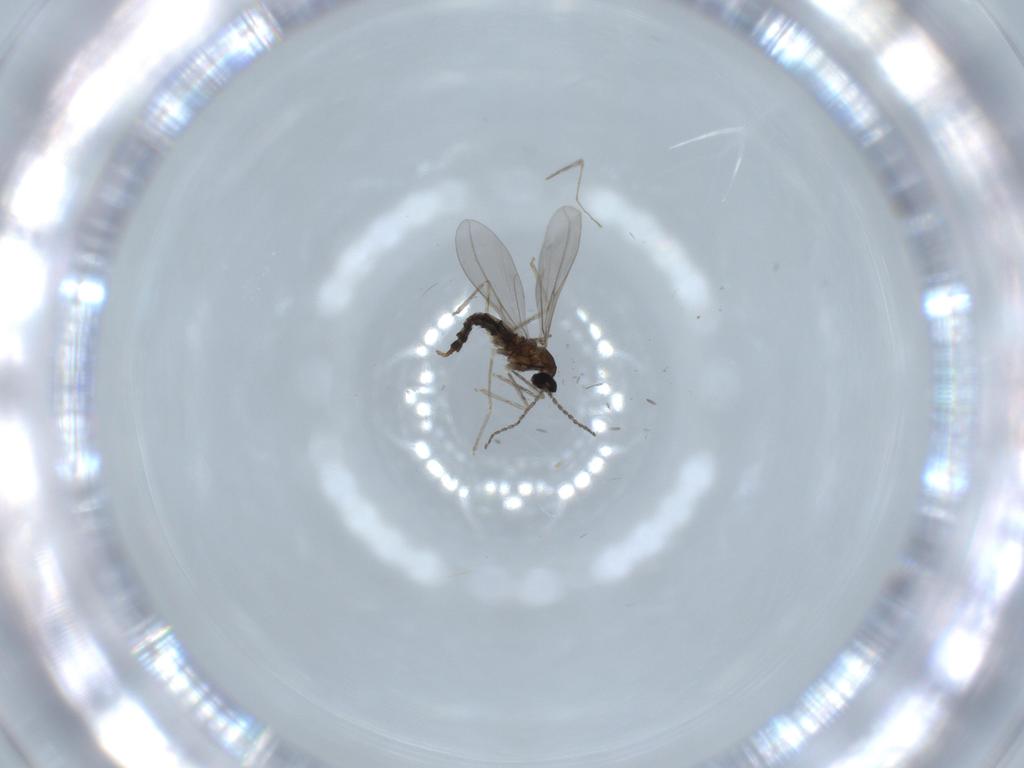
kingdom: Animalia
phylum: Arthropoda
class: Insecta
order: Diptera
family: Cecidomyiidae
